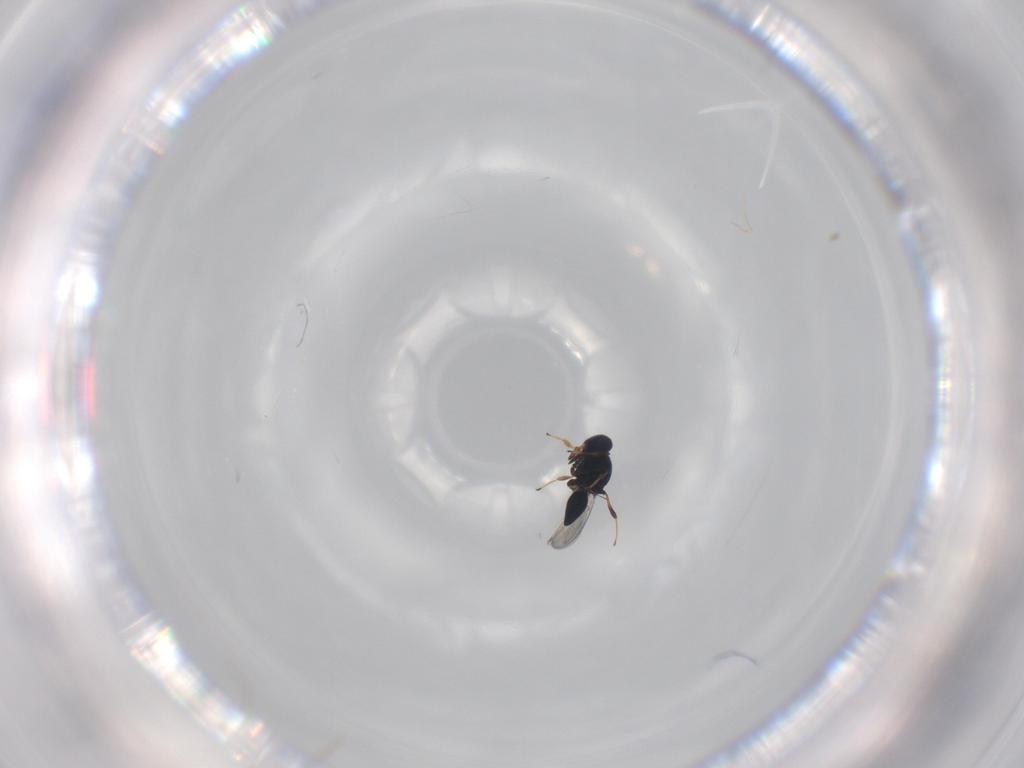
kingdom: Animalia
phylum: Arthropoda
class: Insecta
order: Hymenoptera
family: Platygastridae
